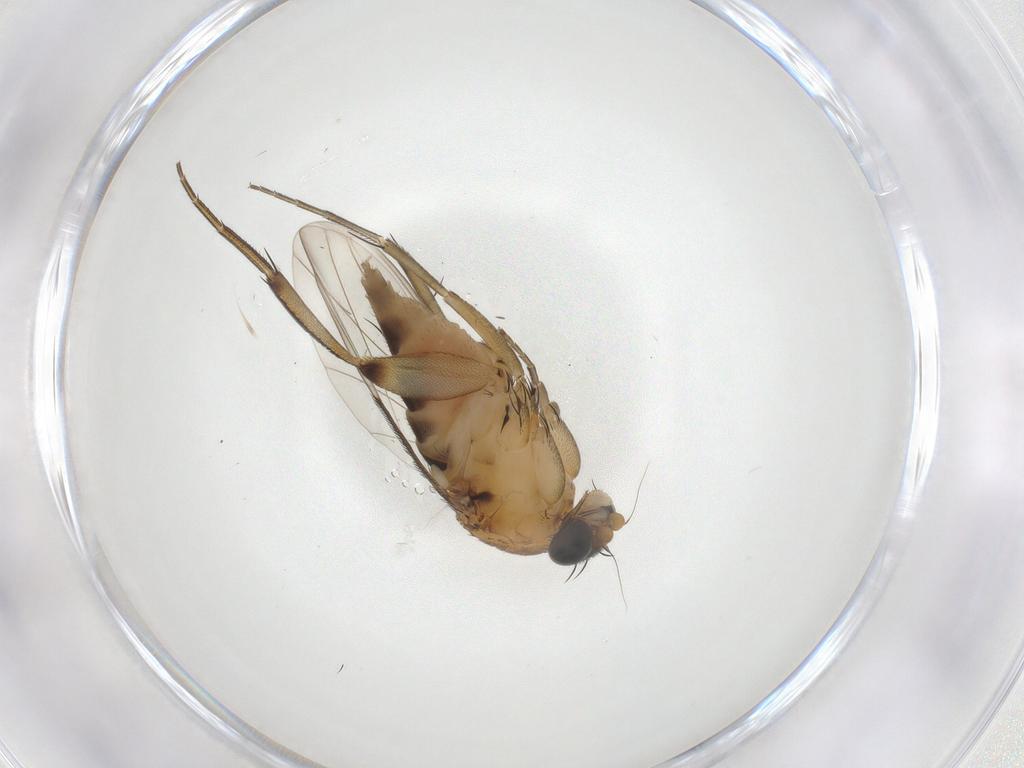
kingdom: Animalia
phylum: Arthropoda
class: Insecta
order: Diptera
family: Phoridae
